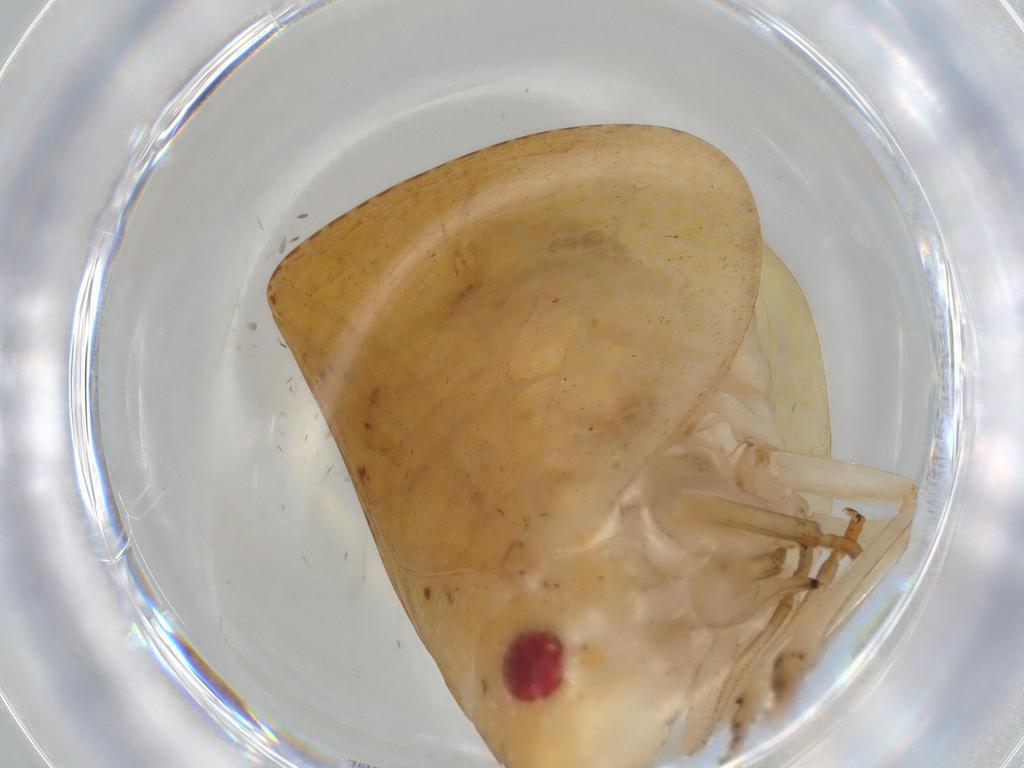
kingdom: Animalia
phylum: Arthropoda
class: Insecta
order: Hemiptera
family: Acanaloniidae
